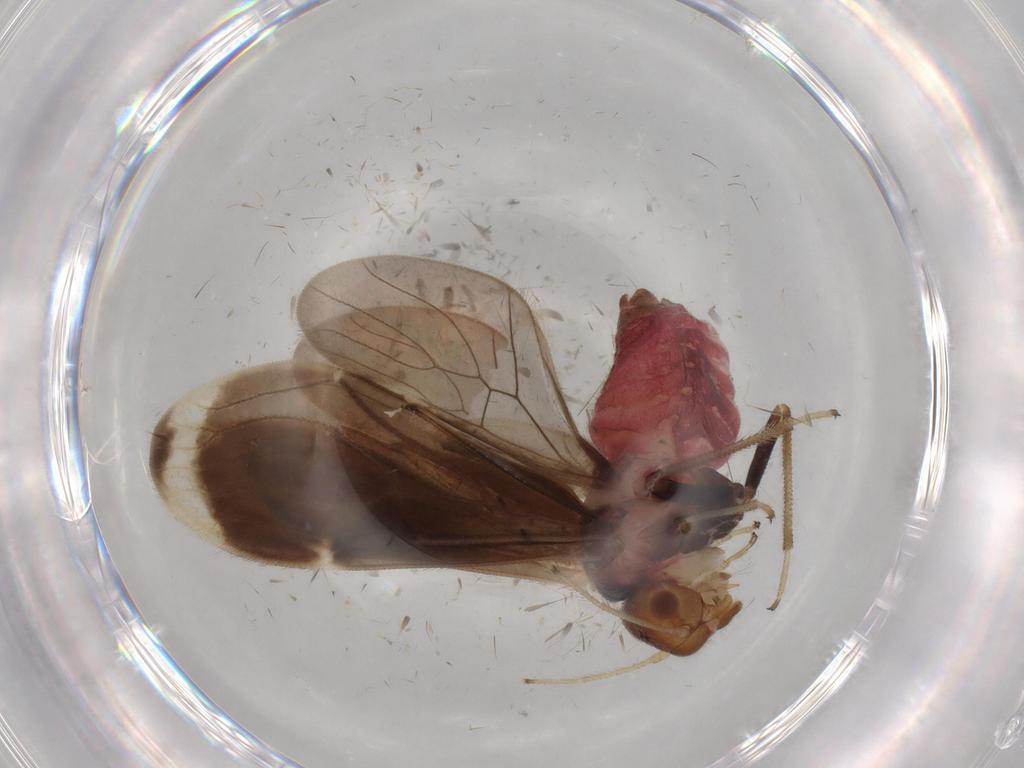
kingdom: Animalia
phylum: Arthropoda
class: Insecta
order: Psocodea
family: Amphipsocidae
